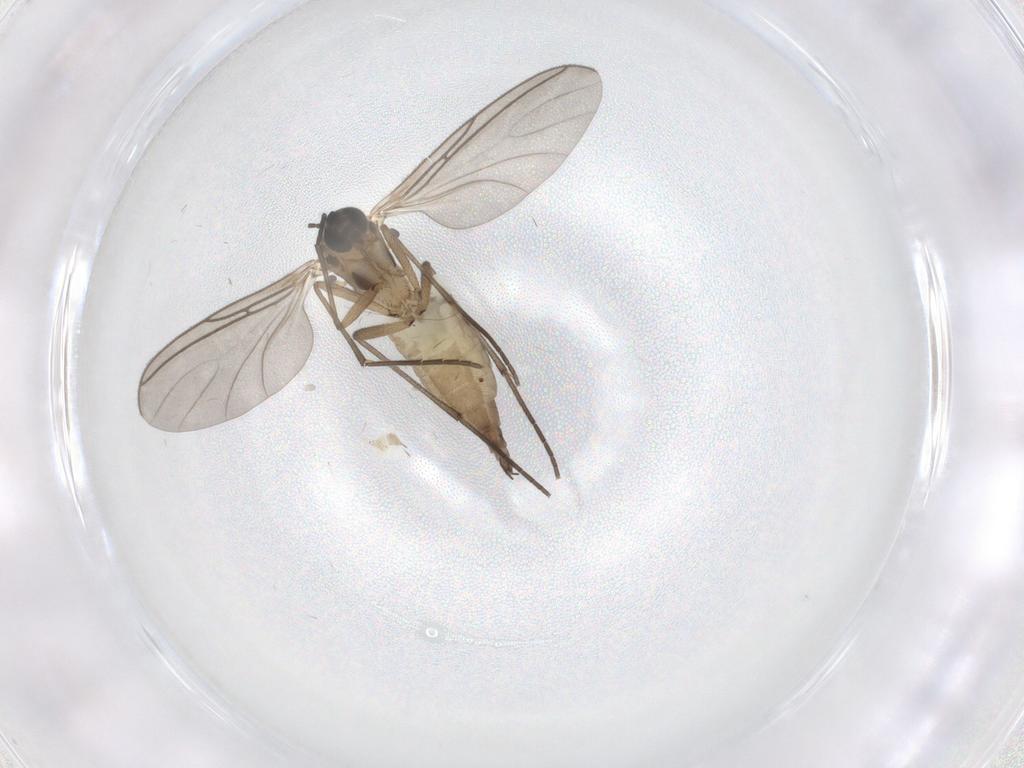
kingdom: Animalia
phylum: Arthropoda
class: Insecta
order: Diptera
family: Sciaridae
